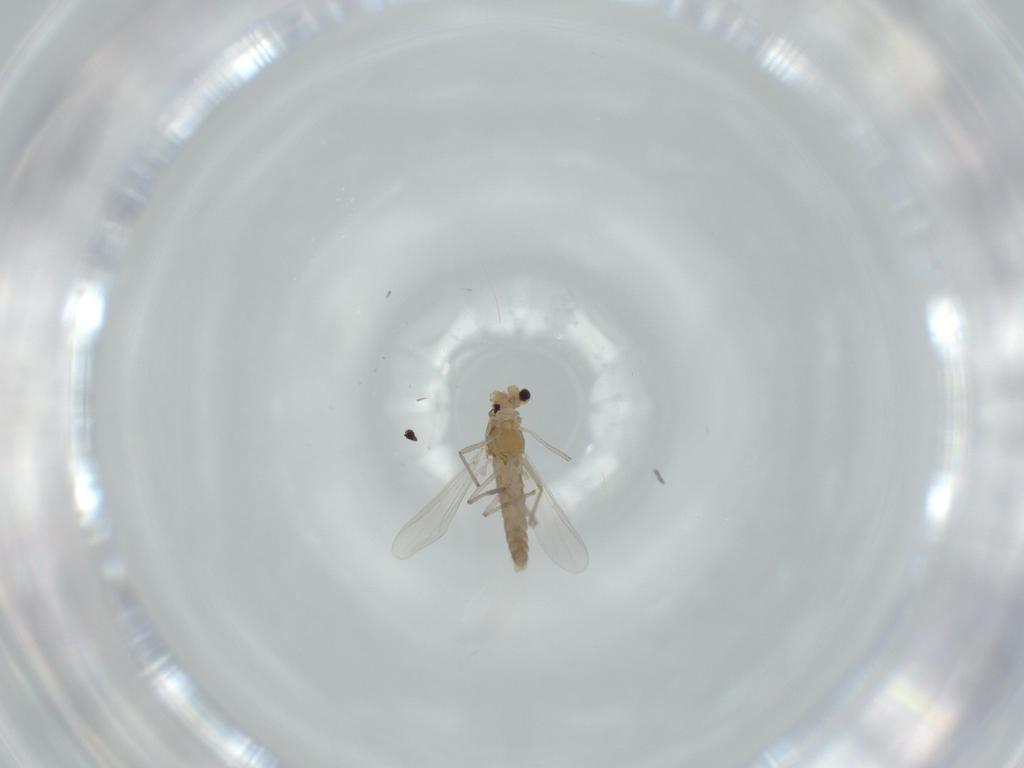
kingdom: Animalia
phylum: Arthropoda
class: Insecta
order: Diptera
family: Chironomidae
